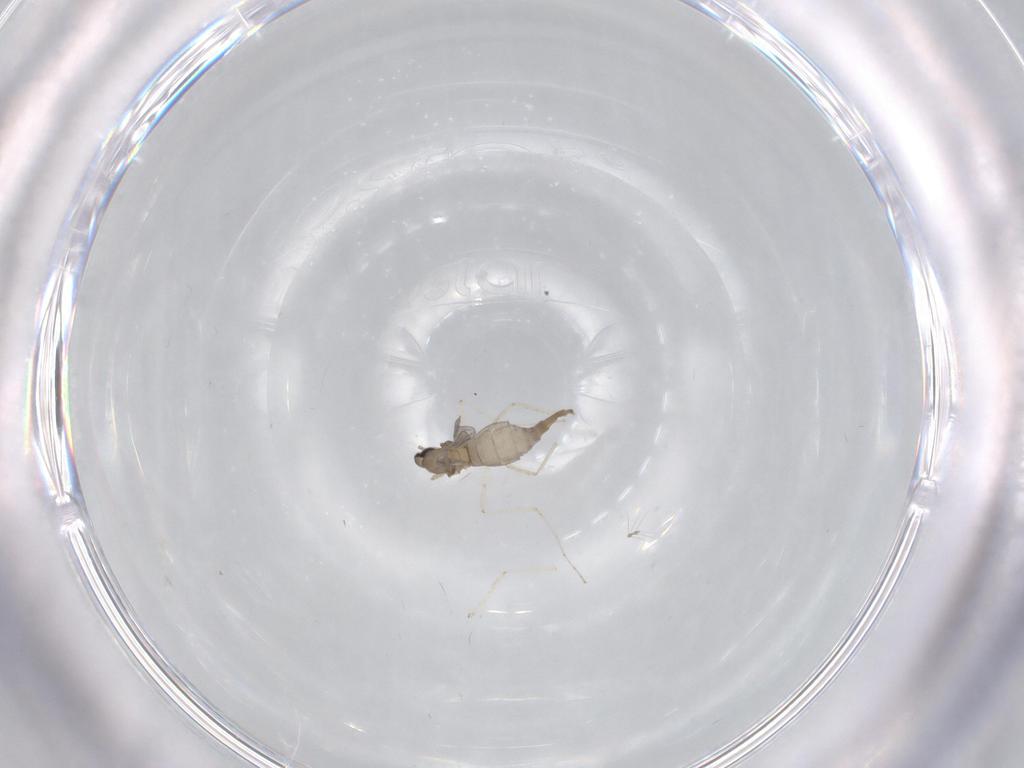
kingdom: Animalia
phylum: Arthropoda
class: Insecta
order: Diptera
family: Cecidomyiidae
